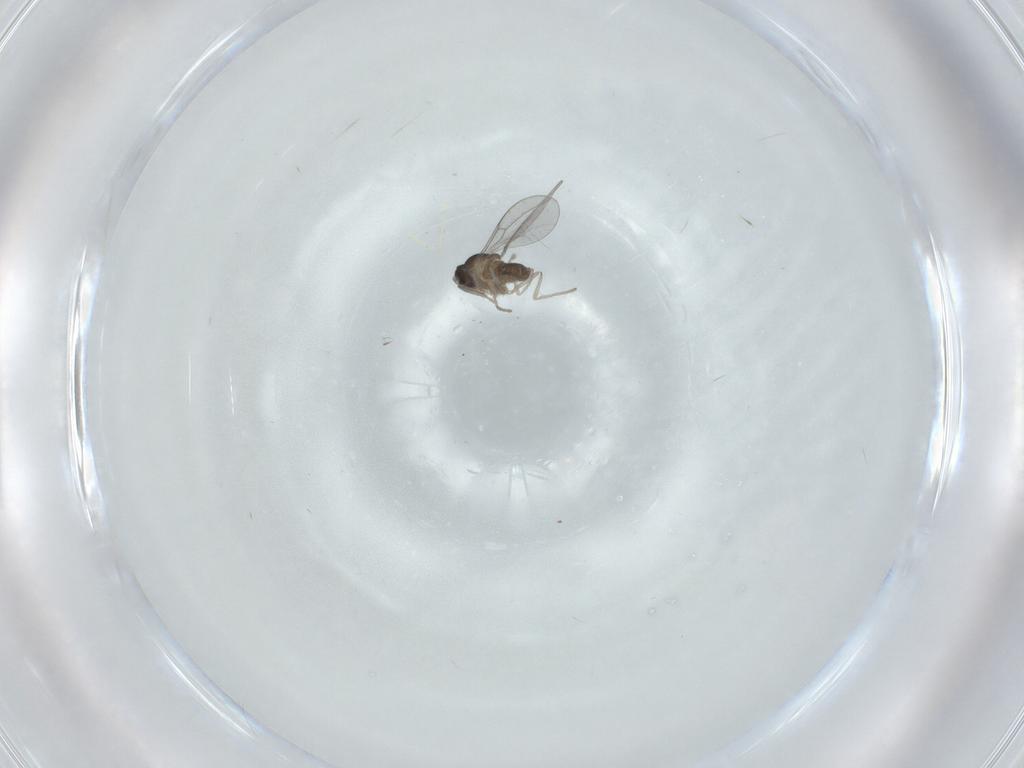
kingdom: Animalia
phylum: Arthropoda
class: Insecta
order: Diptera
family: Cecidomyiidae
